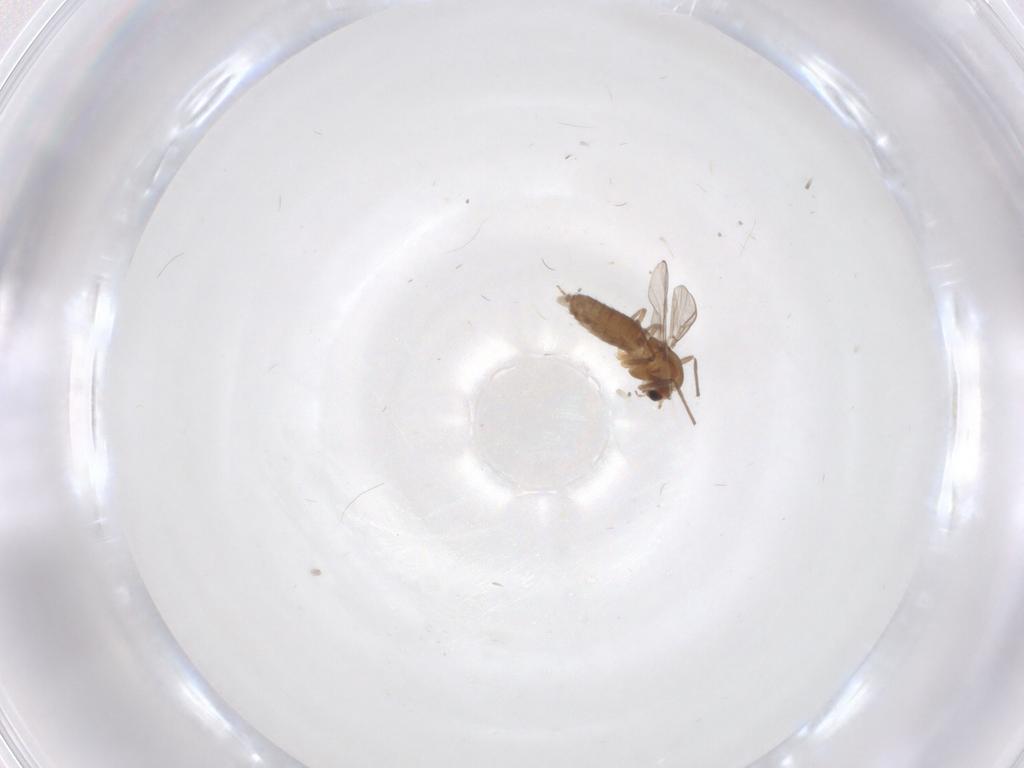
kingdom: Animalia
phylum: Arthropoda
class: Insecta
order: Diptera
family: Chironomidae
